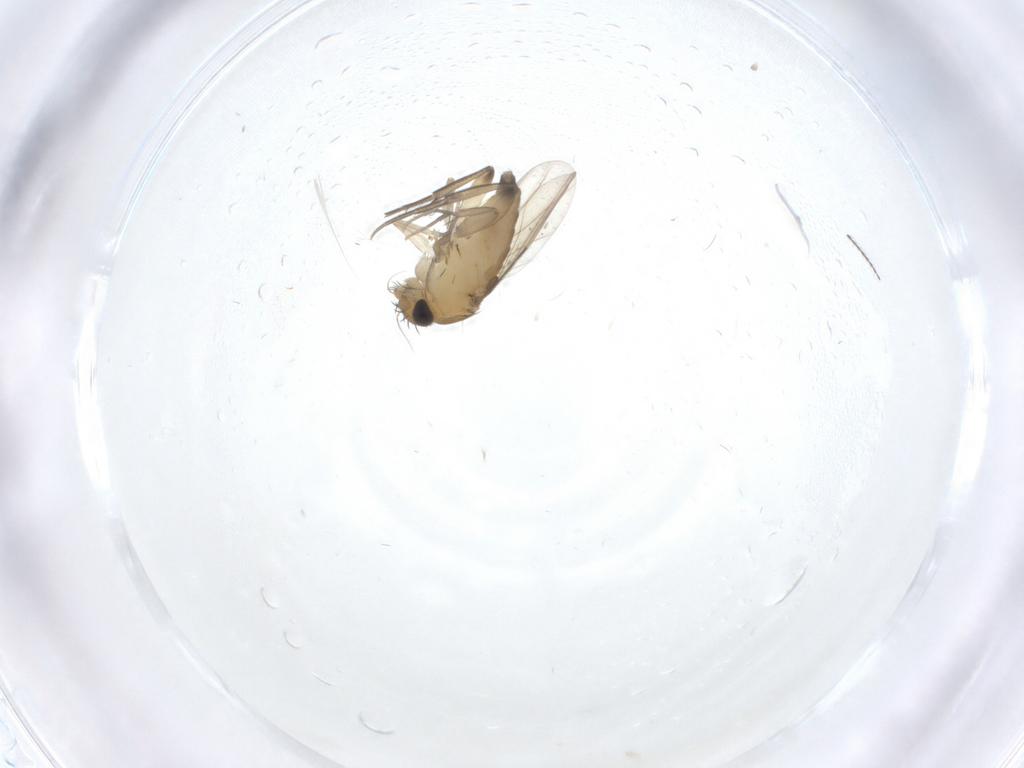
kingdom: Animalia
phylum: Arthropoda
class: Insecta
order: Diptera
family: Phoridae
